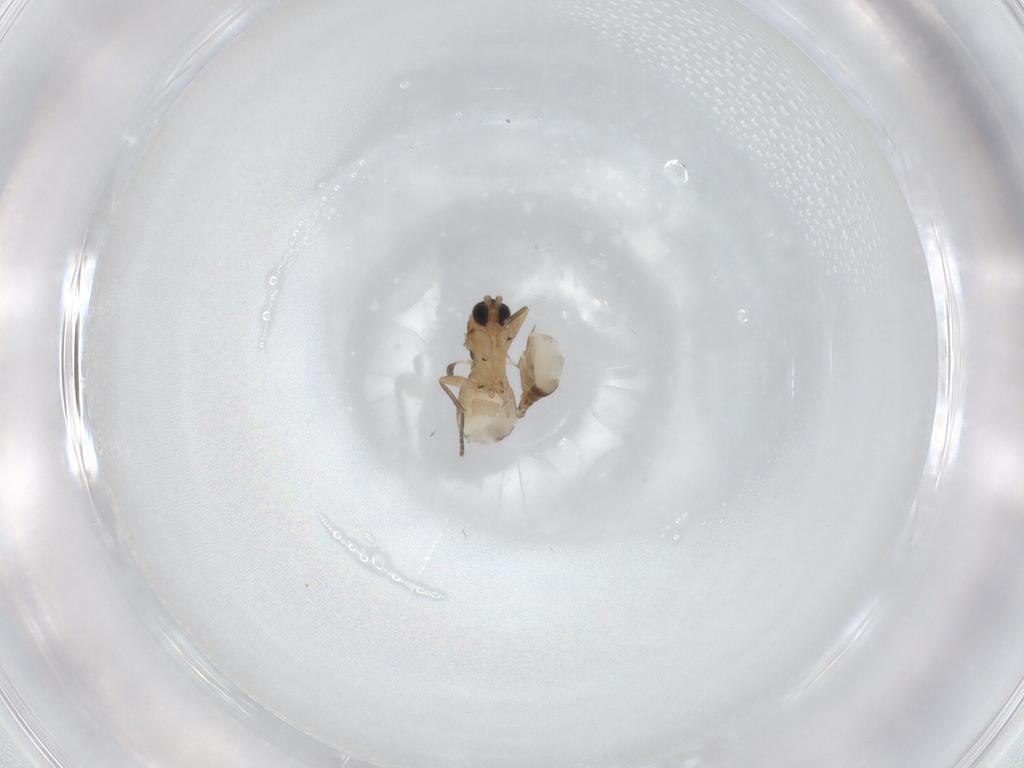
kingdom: Animalia
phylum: Arthropoda
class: Insecta
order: Diptera
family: Sciaridae
